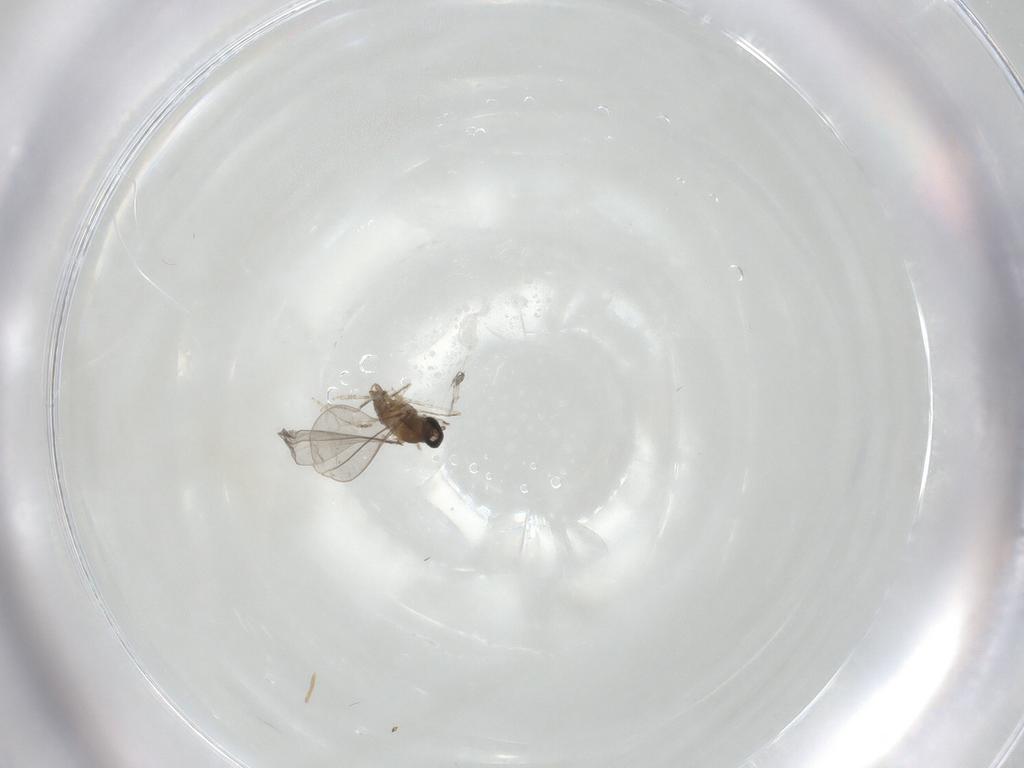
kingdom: Animalia
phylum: Arthropoda
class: Insecta
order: Diptera
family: Cecidomyiidae
